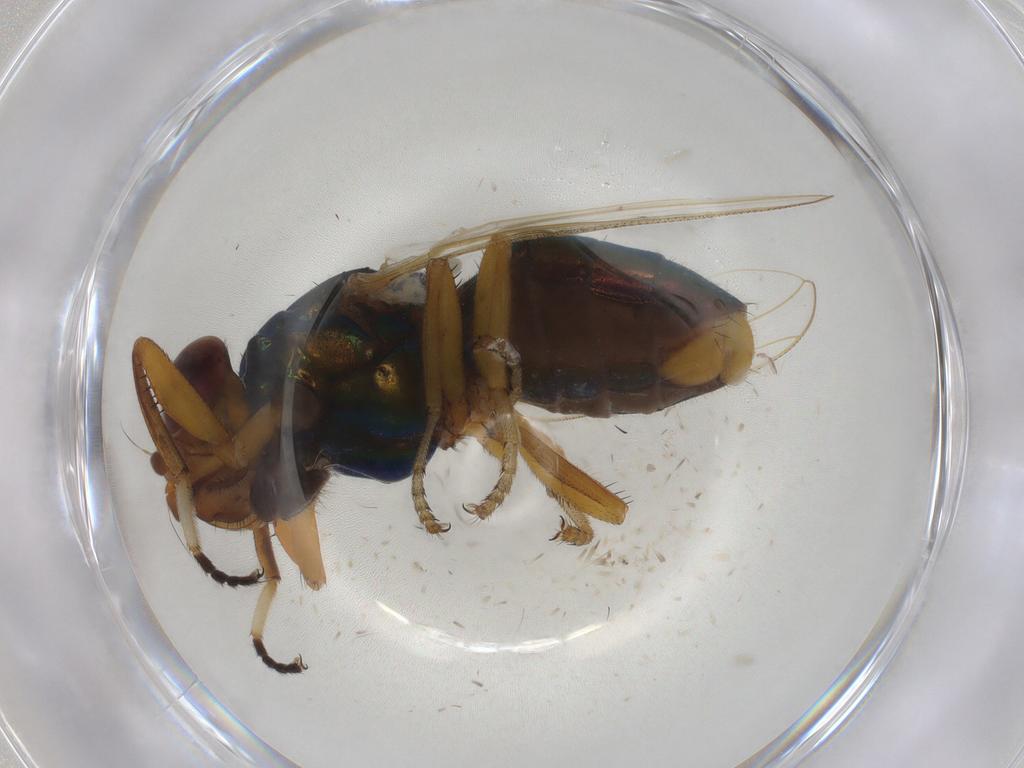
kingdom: Animalia
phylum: Arthropoda
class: Insecta
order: Diptera
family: Ulidiidae
